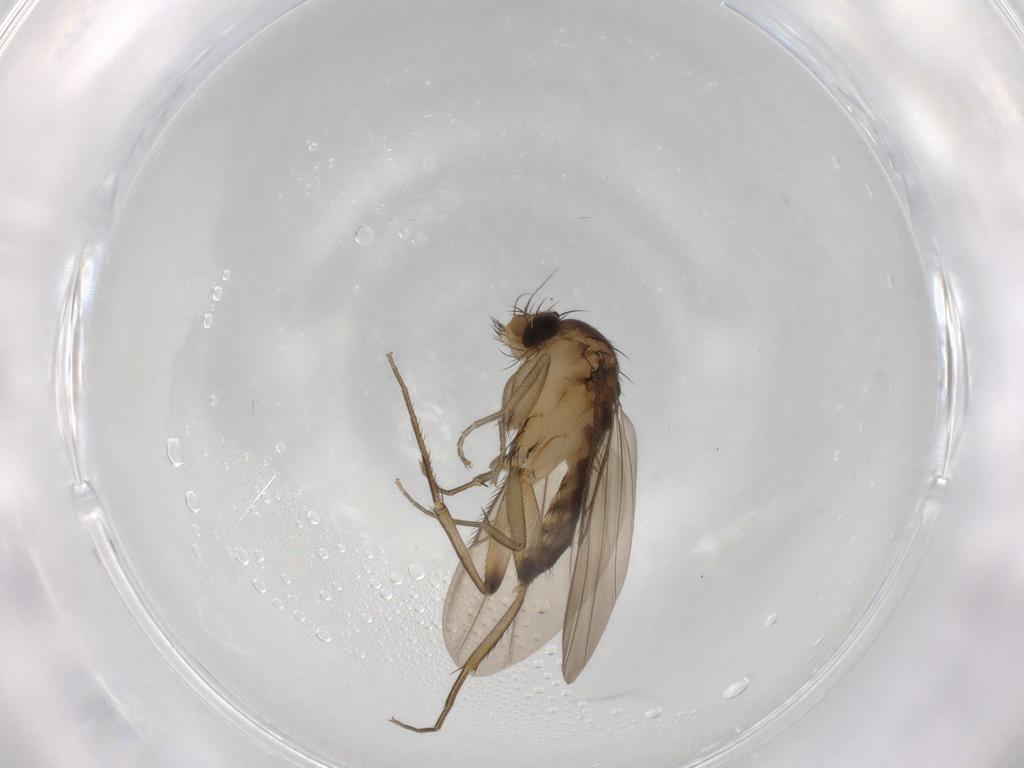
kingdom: Animalia
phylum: Arthropoda
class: Insecta
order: Diptera
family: Phoridae
